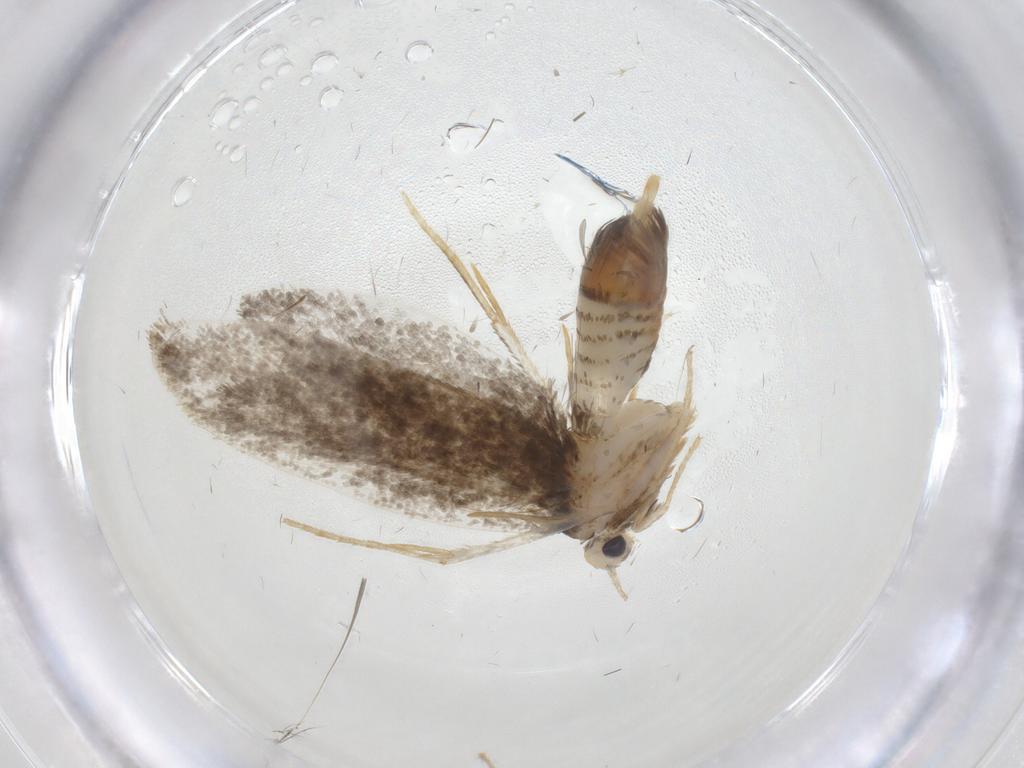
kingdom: Animalia
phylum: Arthropoda
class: Insecta
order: Lepidoptera
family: Psychidae
